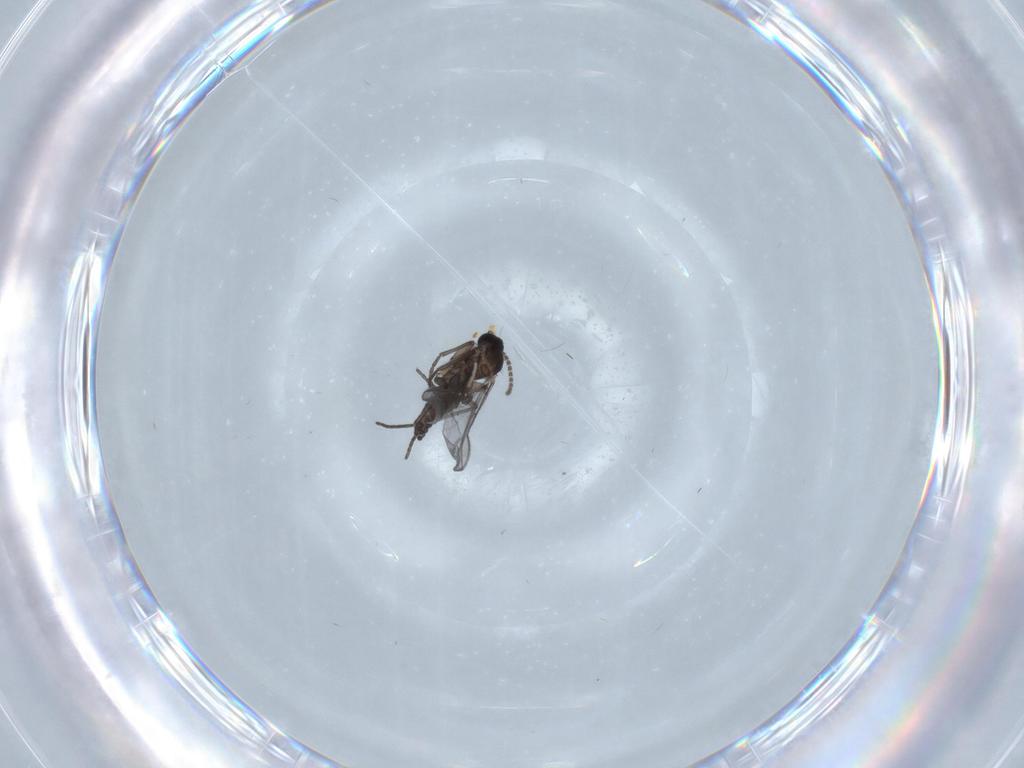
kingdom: Animalia
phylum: Arthropoda
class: Insecta
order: Diptera
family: Chironomidae
